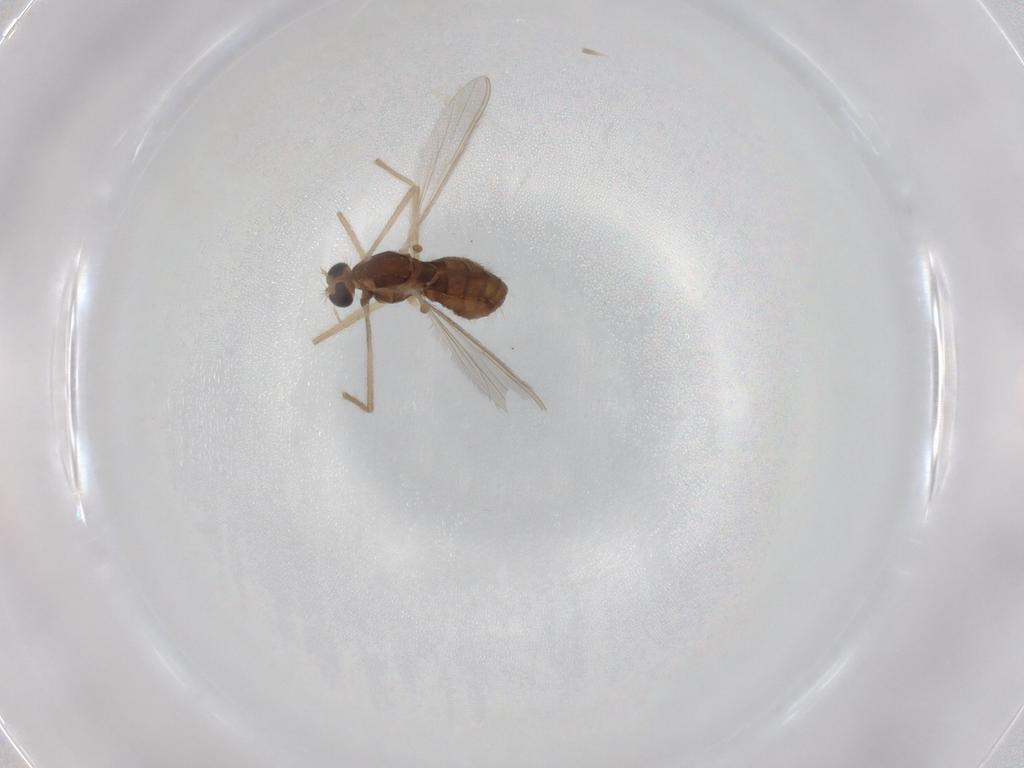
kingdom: Animalia
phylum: Arthropoda
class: Insecta
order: Diptera
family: Chironomidae
